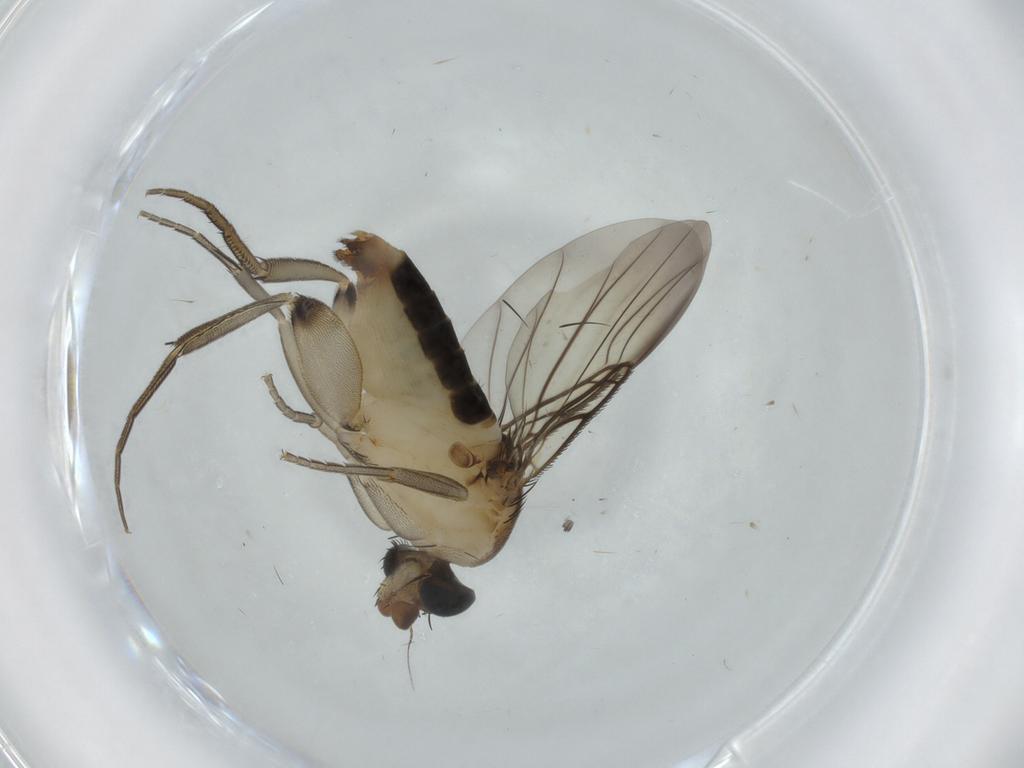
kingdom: Animalia
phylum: Arthropoda
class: Insecta
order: Diptera
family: Phoridae
